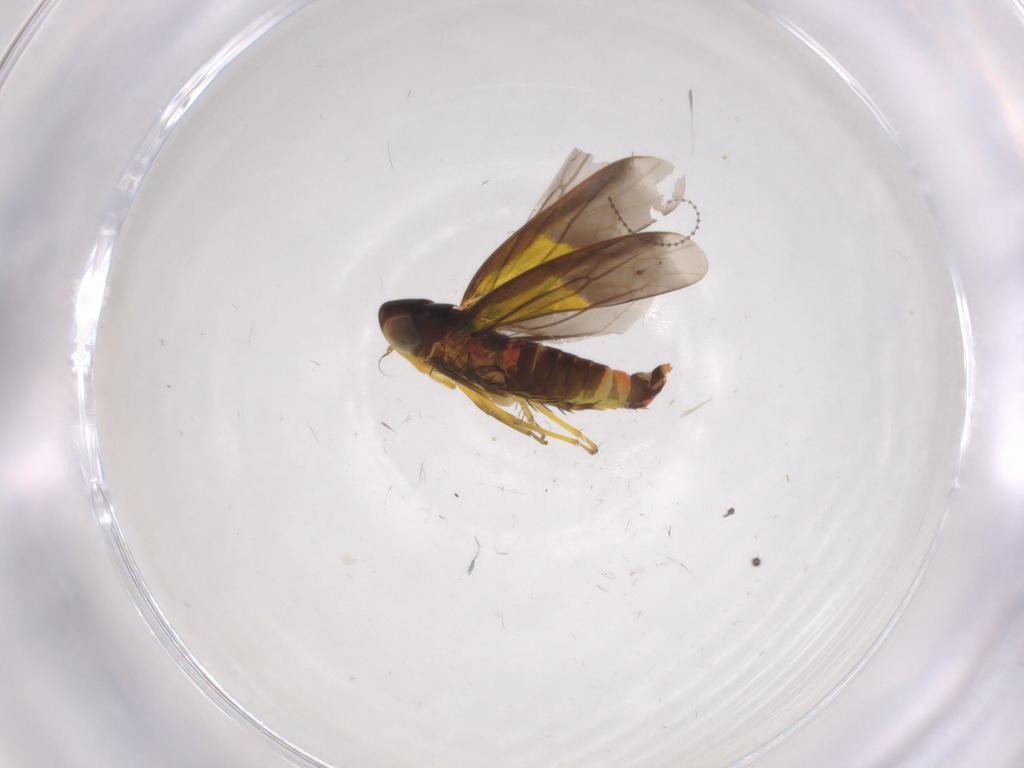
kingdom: Animalia
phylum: Arthropoda
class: Insecta
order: Hemiptera
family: Cicadellidae
